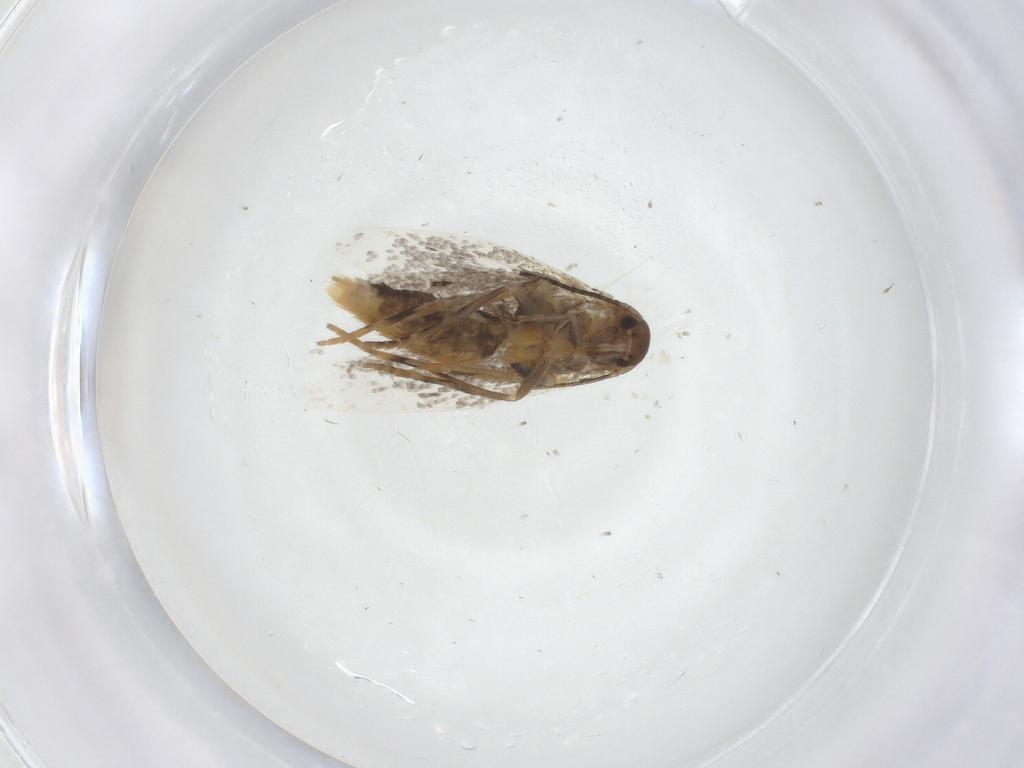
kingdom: Animalia
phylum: Arthropoda
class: Insecta
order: Lepidoptera
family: Elachistidae
